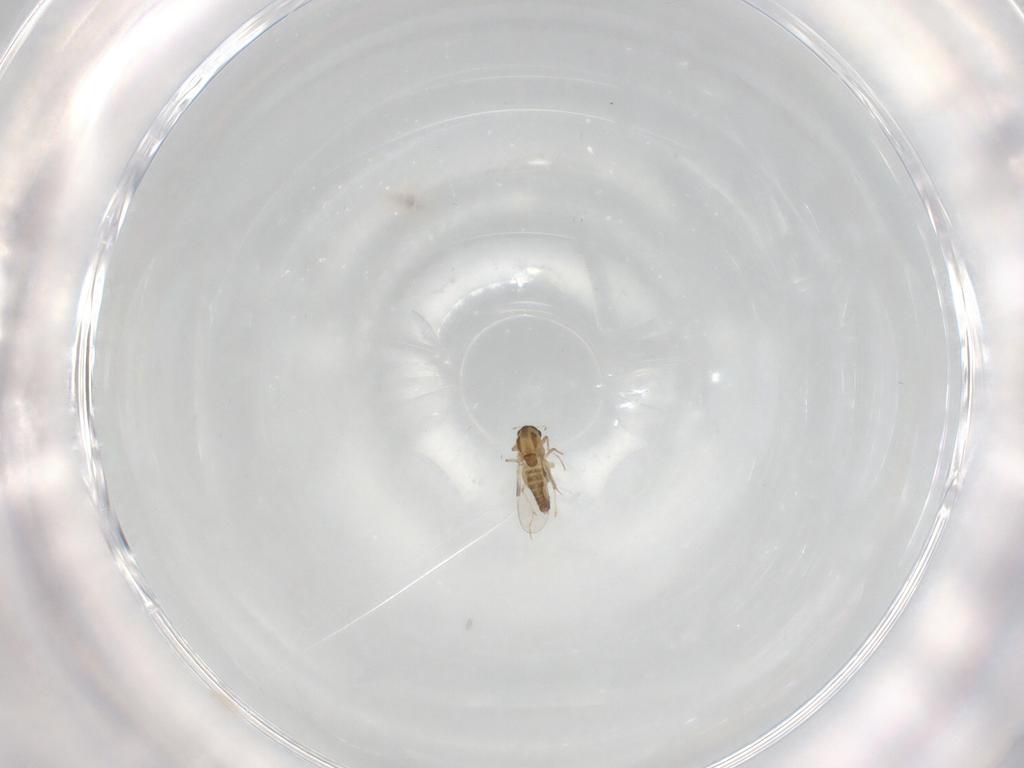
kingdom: Animalia
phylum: Arthropoda
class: Insecta
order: Diptera
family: Chironomidae
